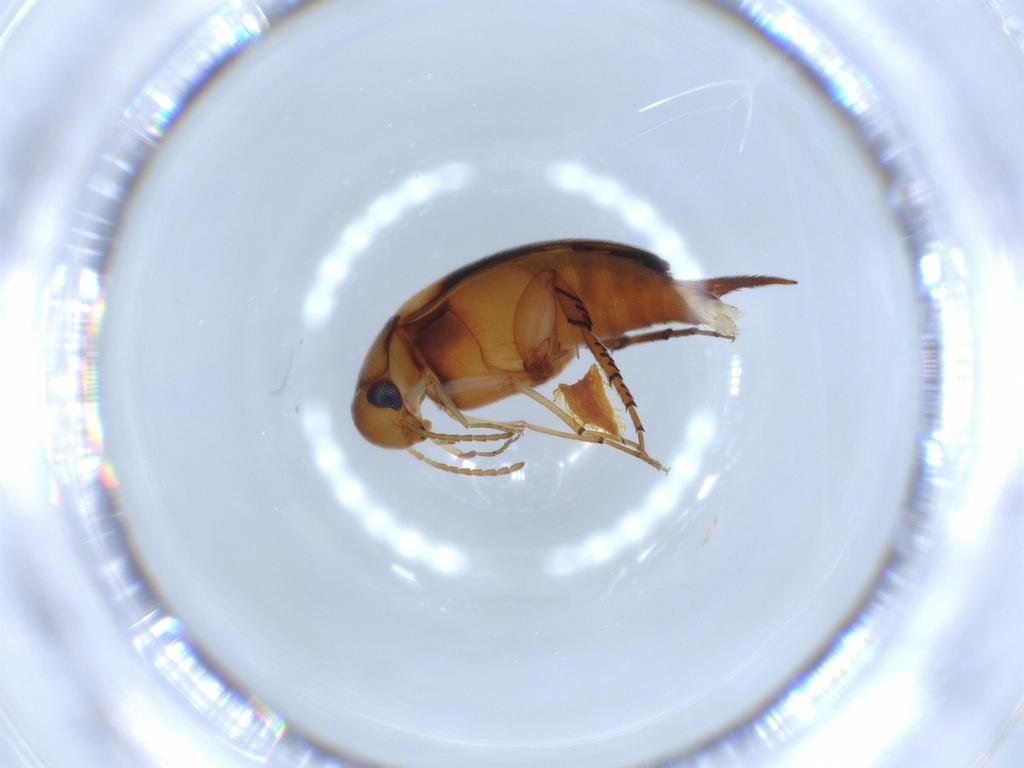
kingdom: Animalia
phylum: Arthropoda
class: Insecta
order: Coleoptera
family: Mordellidae
